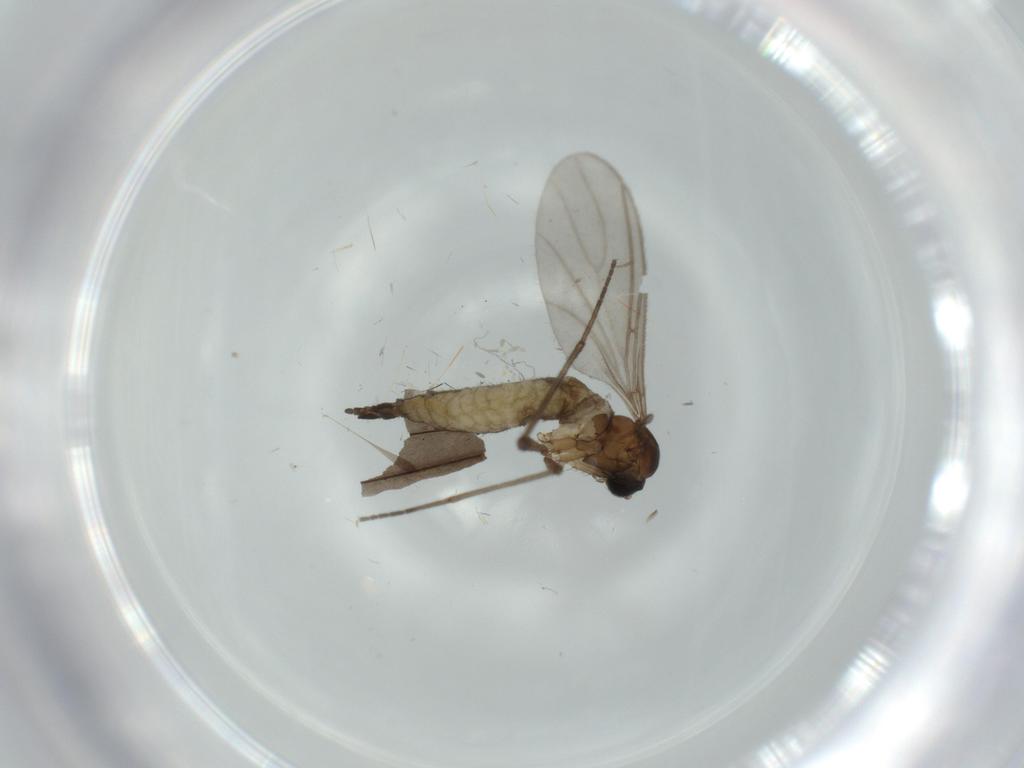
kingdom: Animalia
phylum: Arthropoda
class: Insecta
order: Diptera
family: Sciaridae
